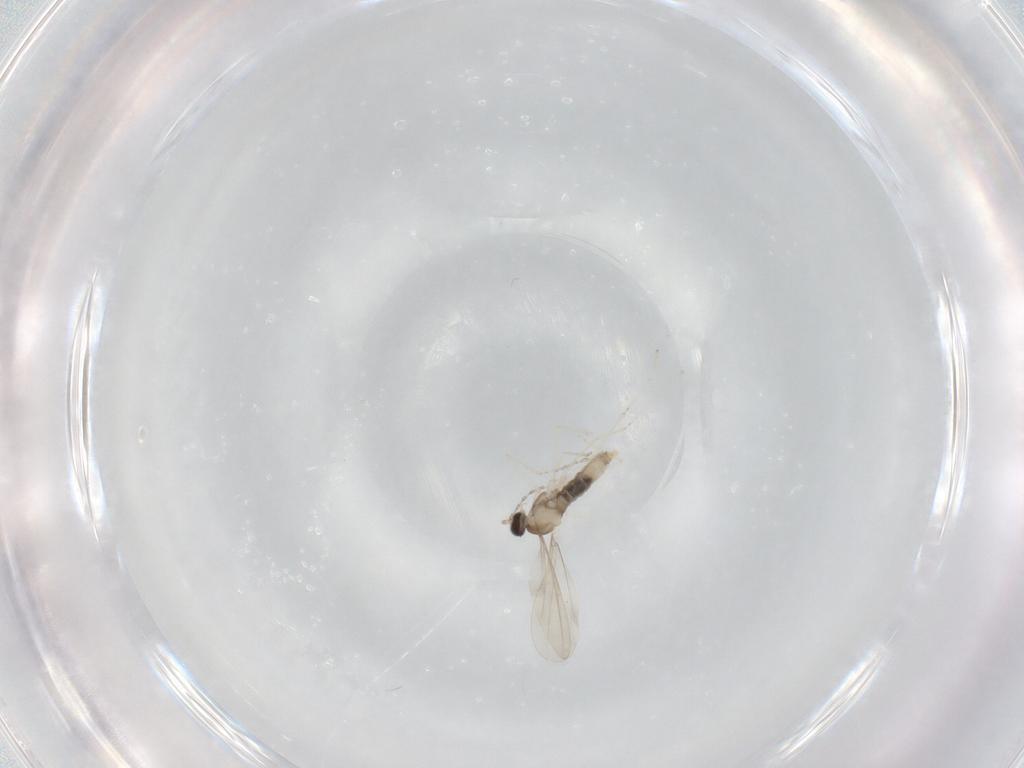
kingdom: Animalia
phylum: Arthropoda
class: Insecta
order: Diptera
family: Cecidomyiidae
